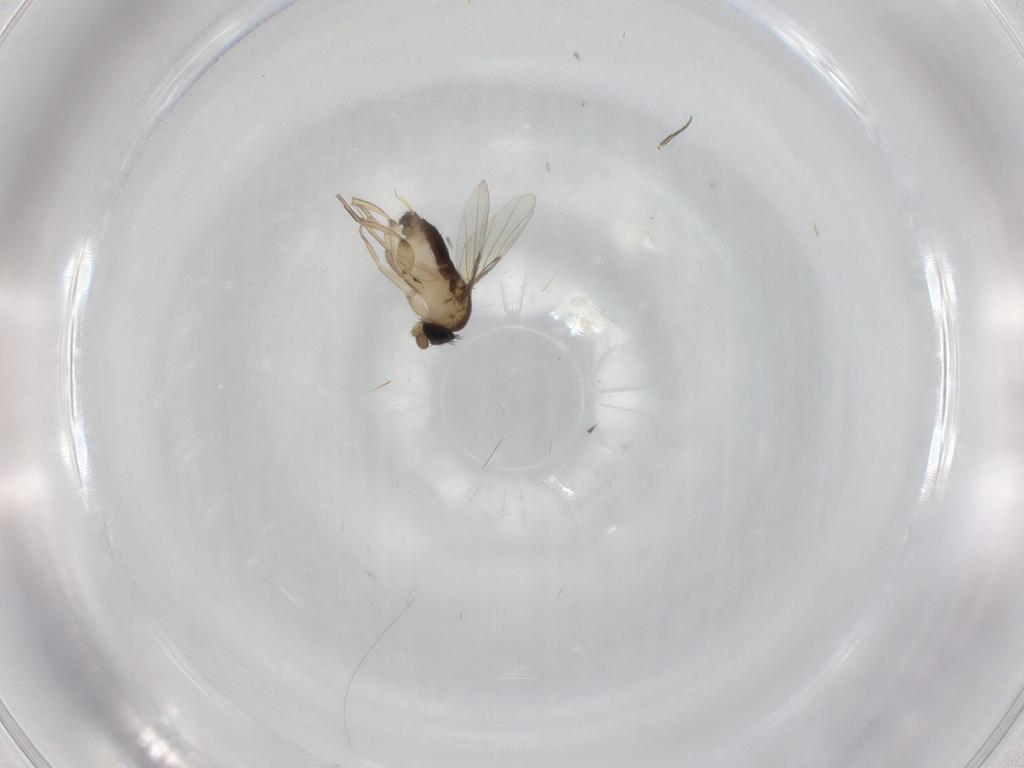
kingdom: Animalia
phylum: Arthropoda
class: Insecta
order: Diptera
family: Phoridae
